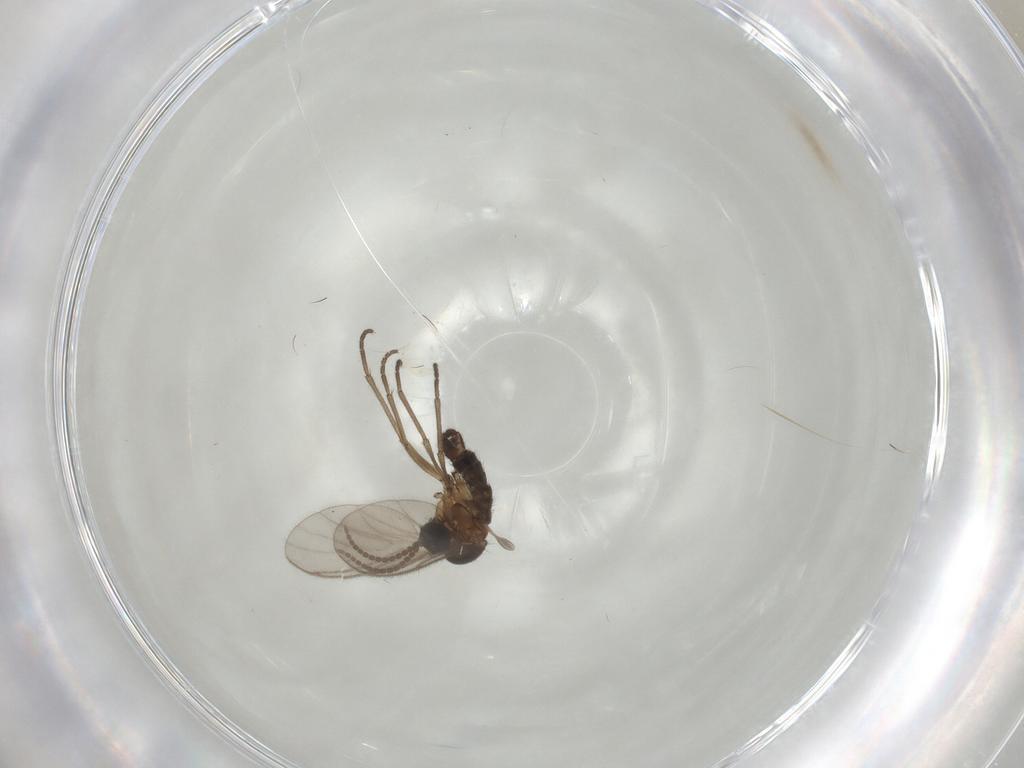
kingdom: Animalia
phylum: Arthropoda
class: Insecta
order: Diptera
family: Sciaridae
